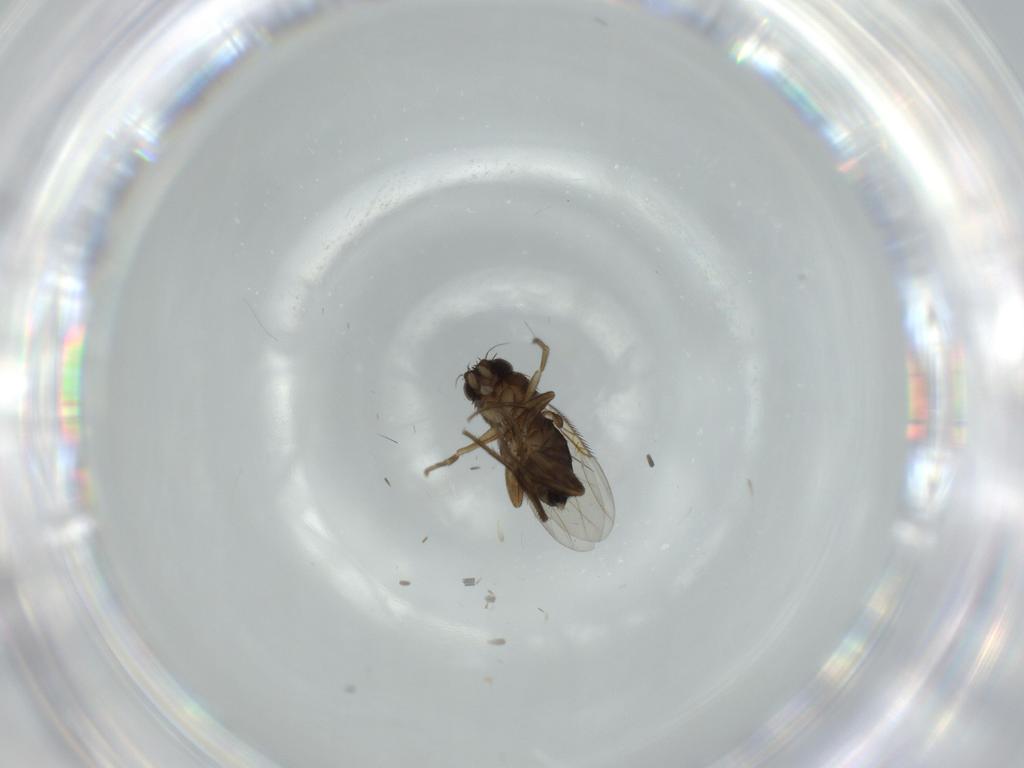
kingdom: Animalia
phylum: Arthropoda
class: Insecta
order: Diptera
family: Phoridae
